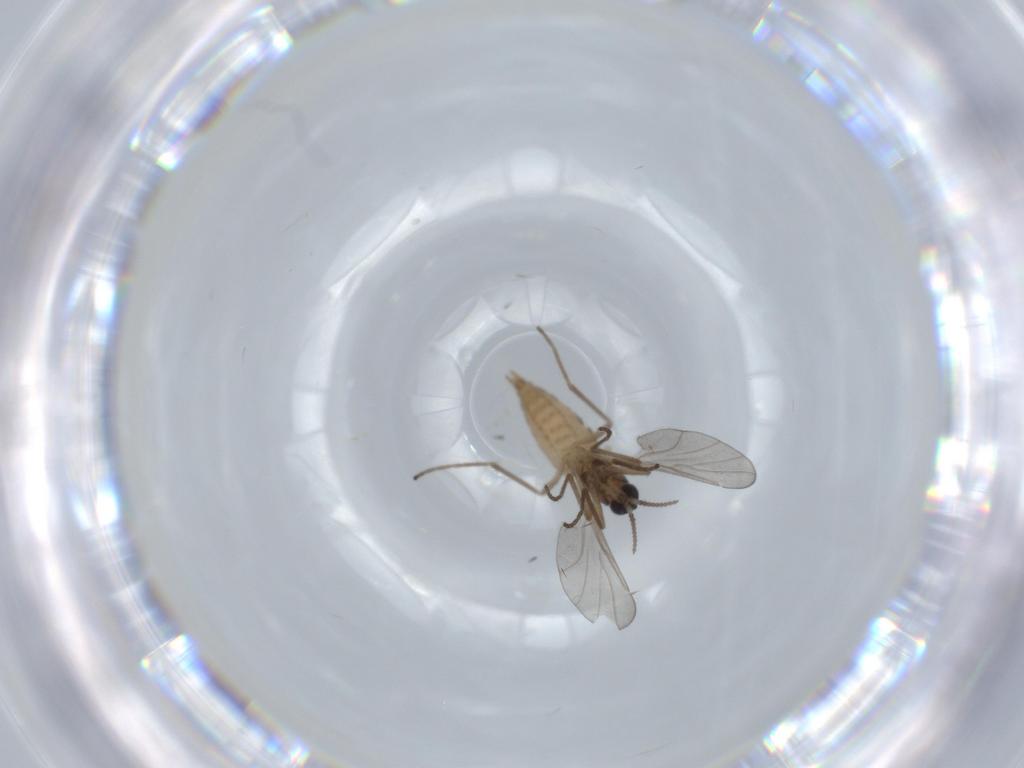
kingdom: Animalia
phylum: Arthropoda
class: Insecta
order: Diptera
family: Cecidomyiidae
